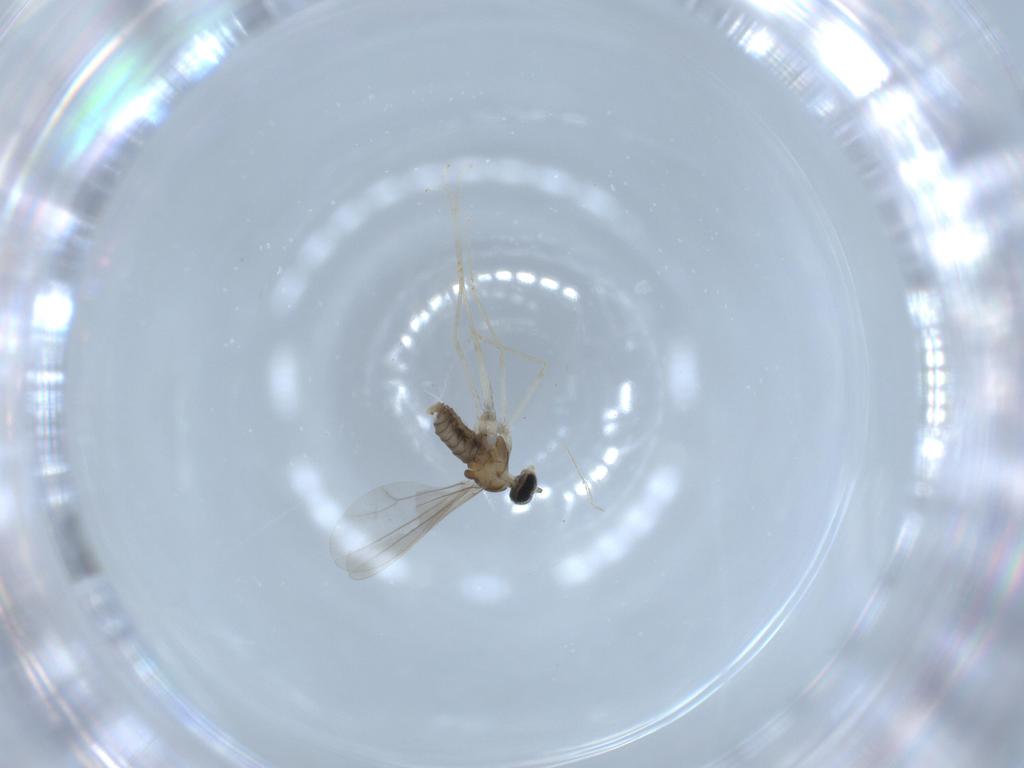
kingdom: Animalia
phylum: Arthropoda
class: Insecta
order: Diptera
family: Cecidomyiidae
